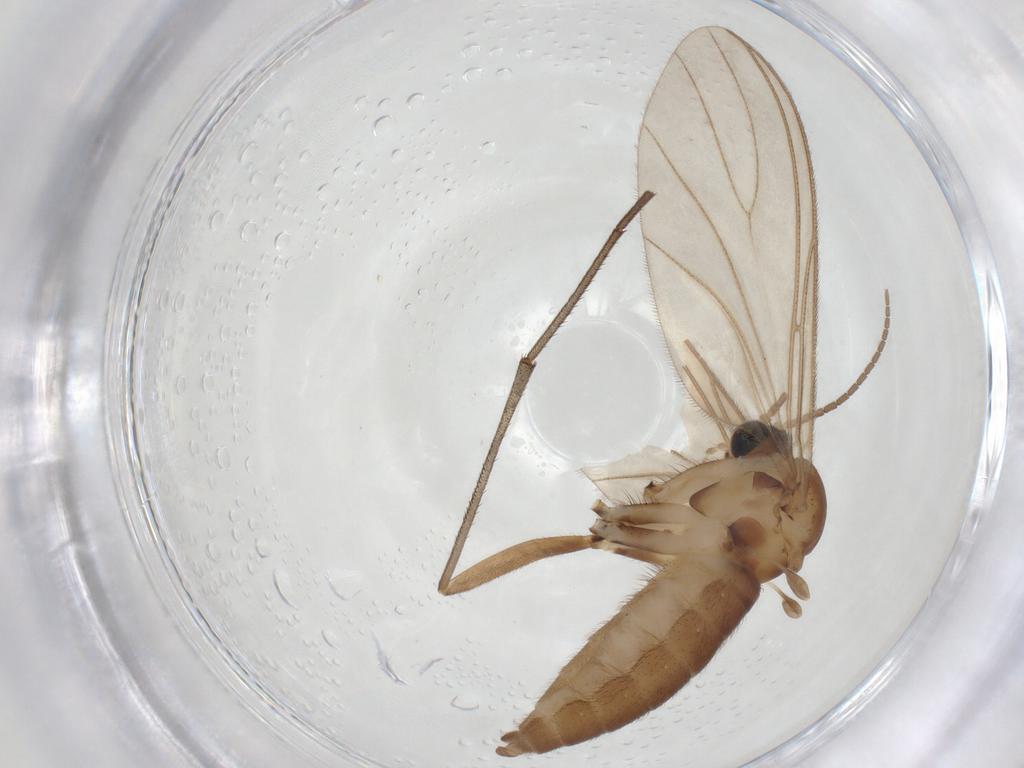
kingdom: Animalia
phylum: Arthropoda
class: Insecta
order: Diptera
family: Sciaridae
